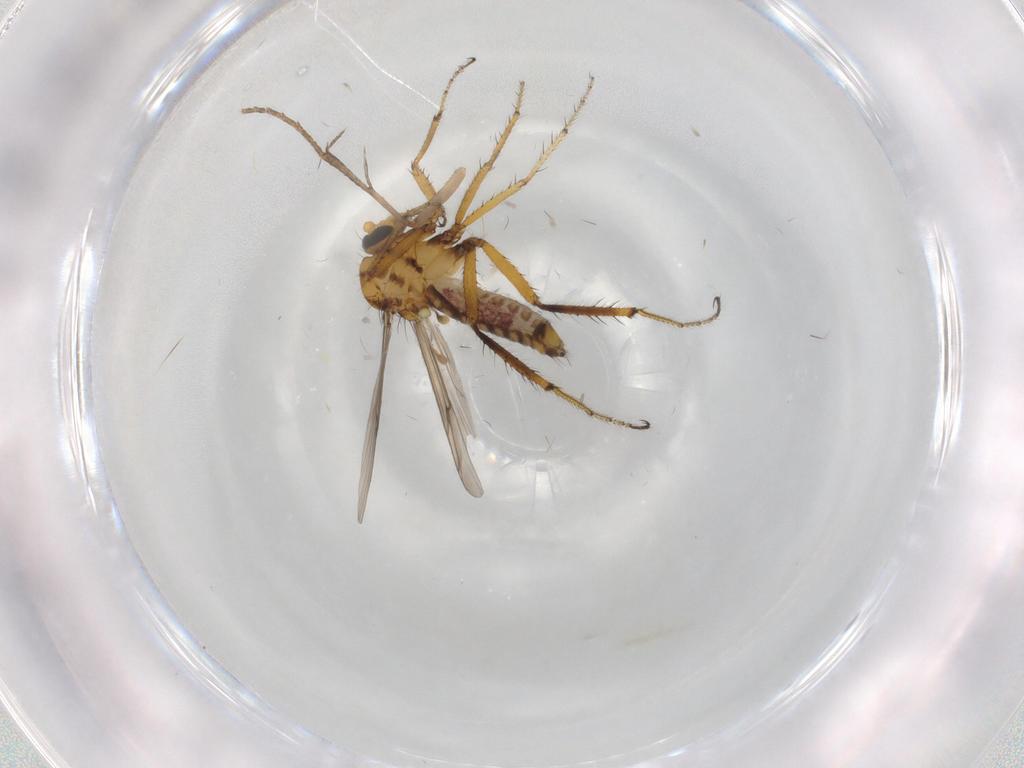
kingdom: Animalia
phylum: Arthropoda
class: Insecta
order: Diptera
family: Ceratopogonidae
